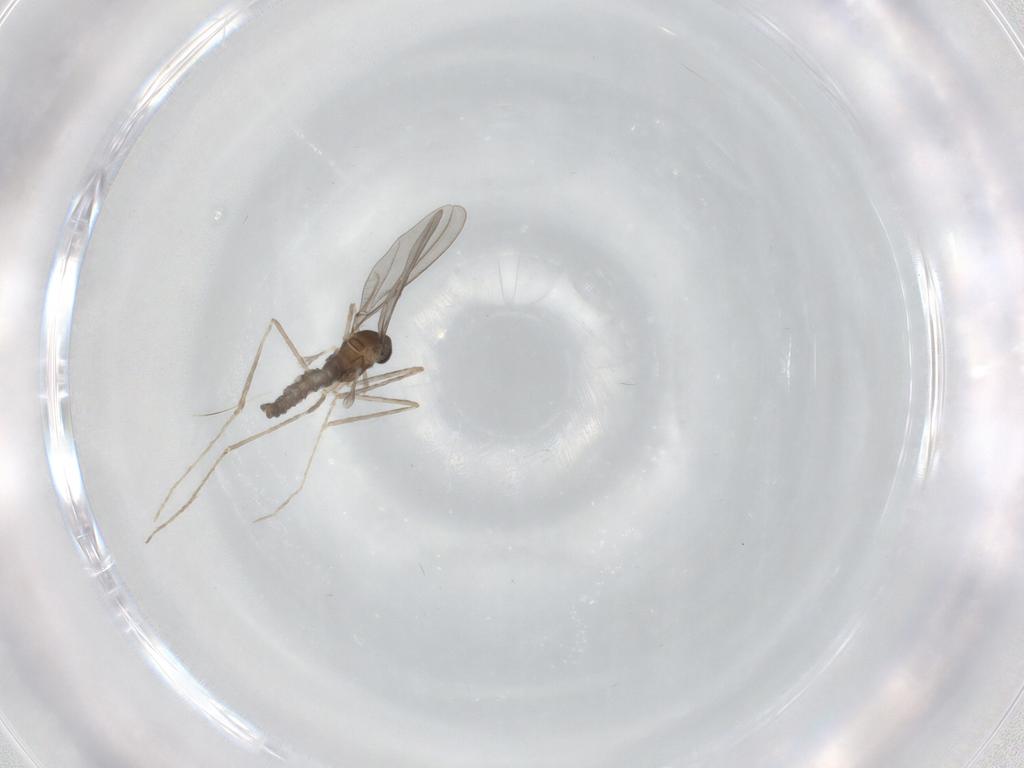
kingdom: Animalia
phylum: Arthropoda
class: Insecta
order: Diptera
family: Cecidomyiidae
